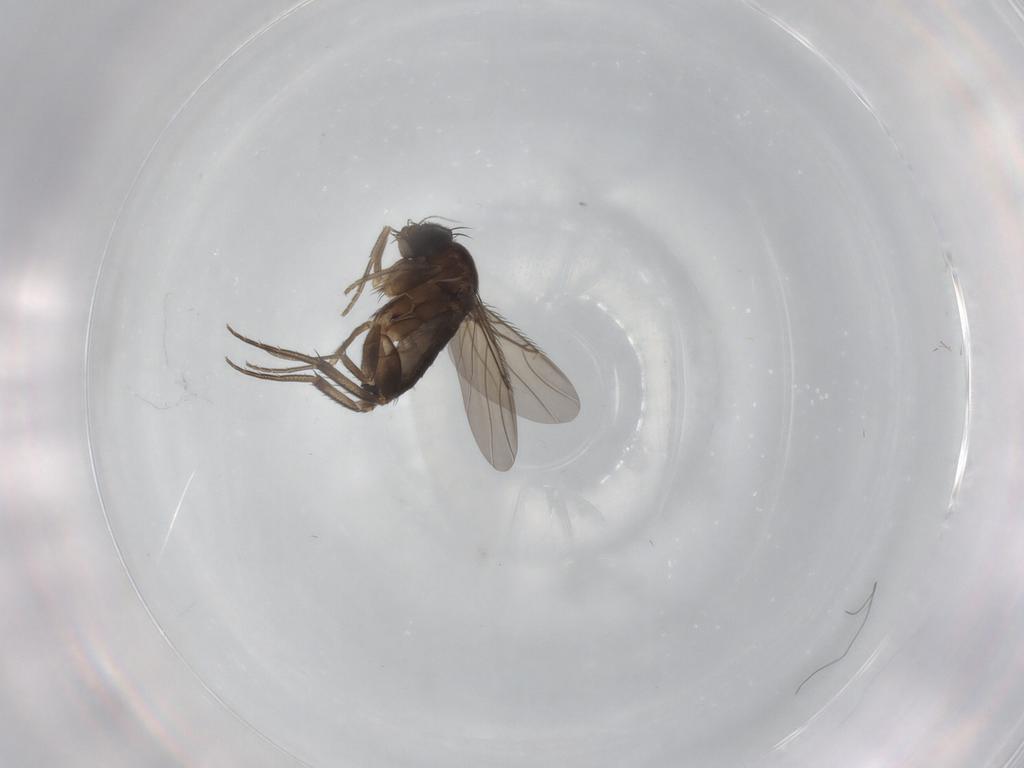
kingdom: Animalia
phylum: Arthropoda
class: Insecta
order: Diptera
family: Phoridae
